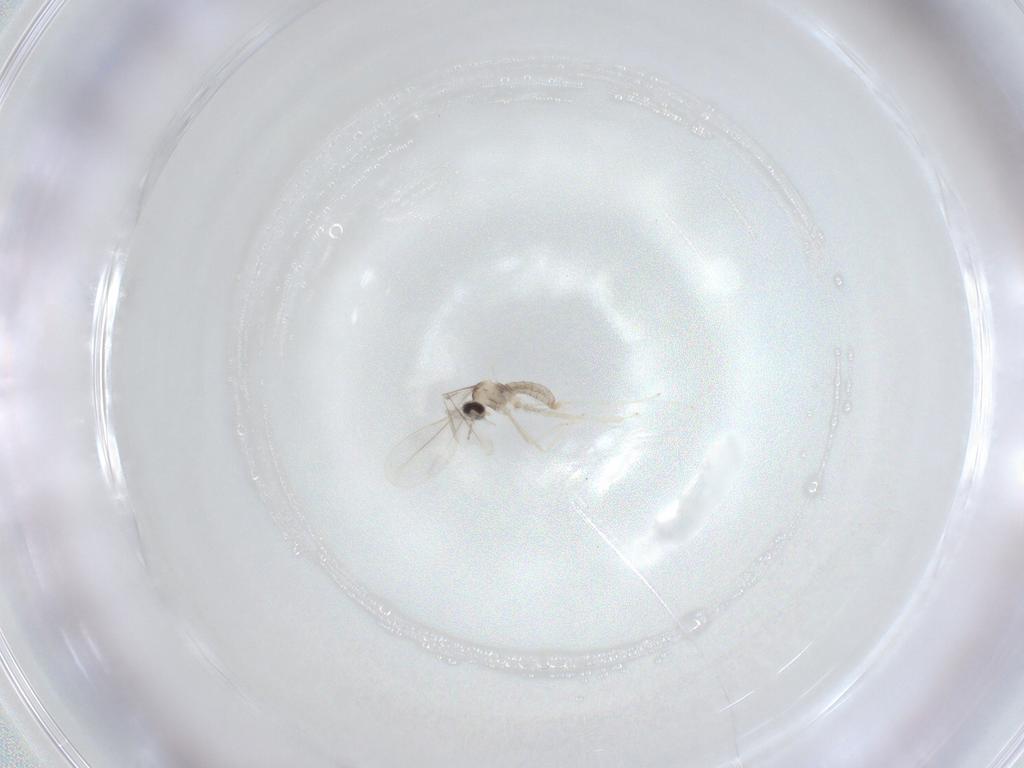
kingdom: Animalia
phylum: Arthropoda
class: Insecta
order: Diptera
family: Cecidomyiidae
